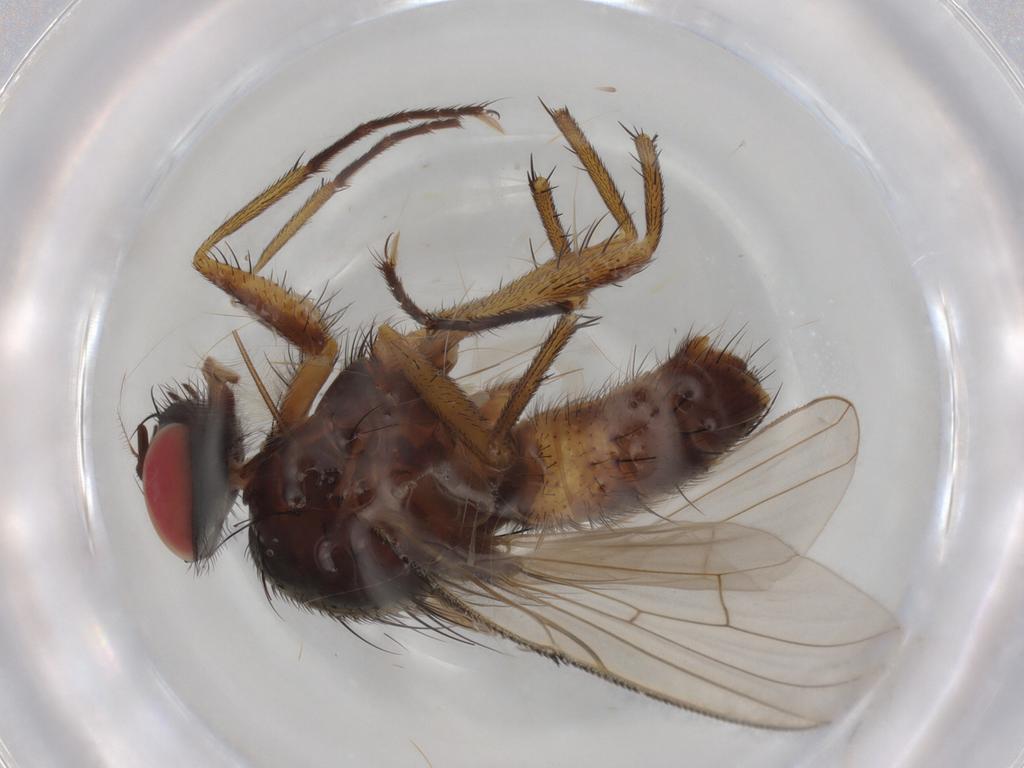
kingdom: Animalia
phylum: Arthropoda
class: Insecta
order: Diptera
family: Muscidae
